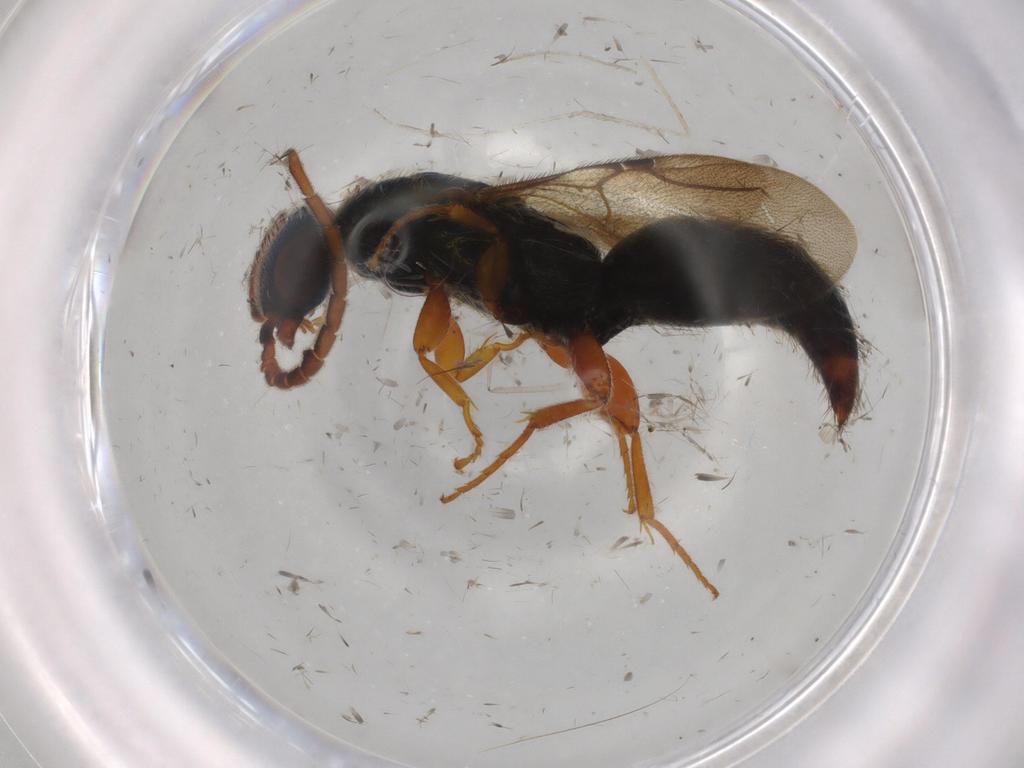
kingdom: Animalia
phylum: Arthropoda
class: Insecta
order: Hymenoptera
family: Bethylidae
